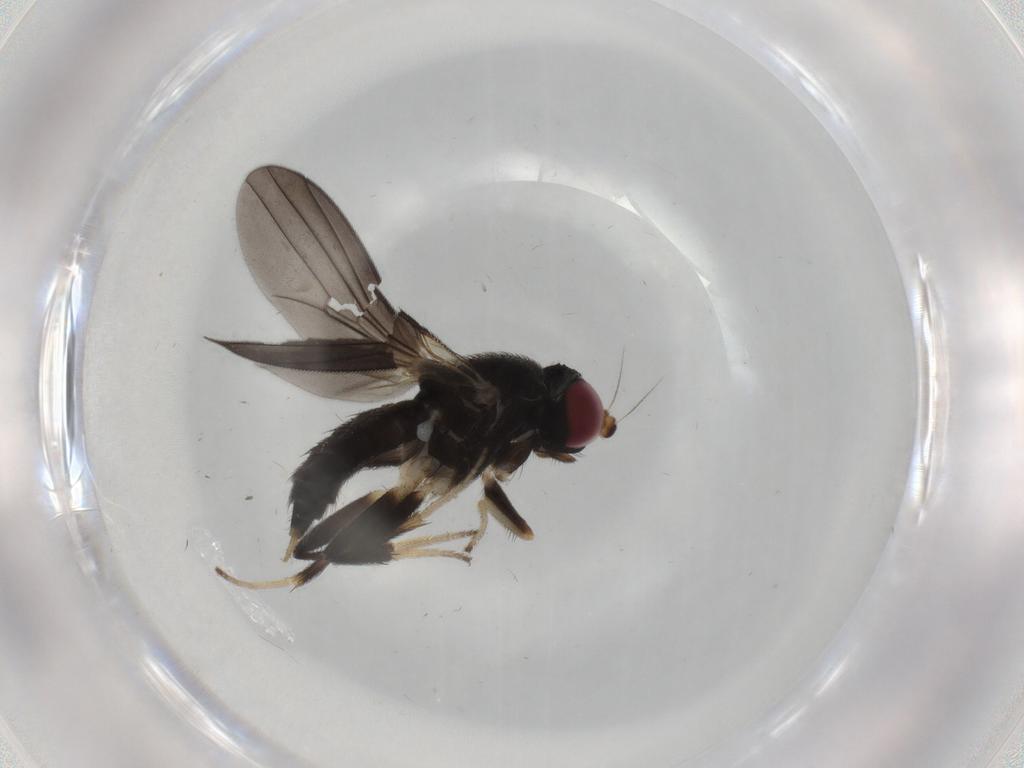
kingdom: Animalia
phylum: Arthropoda
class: Insecta
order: Diptera
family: Clusiidae
